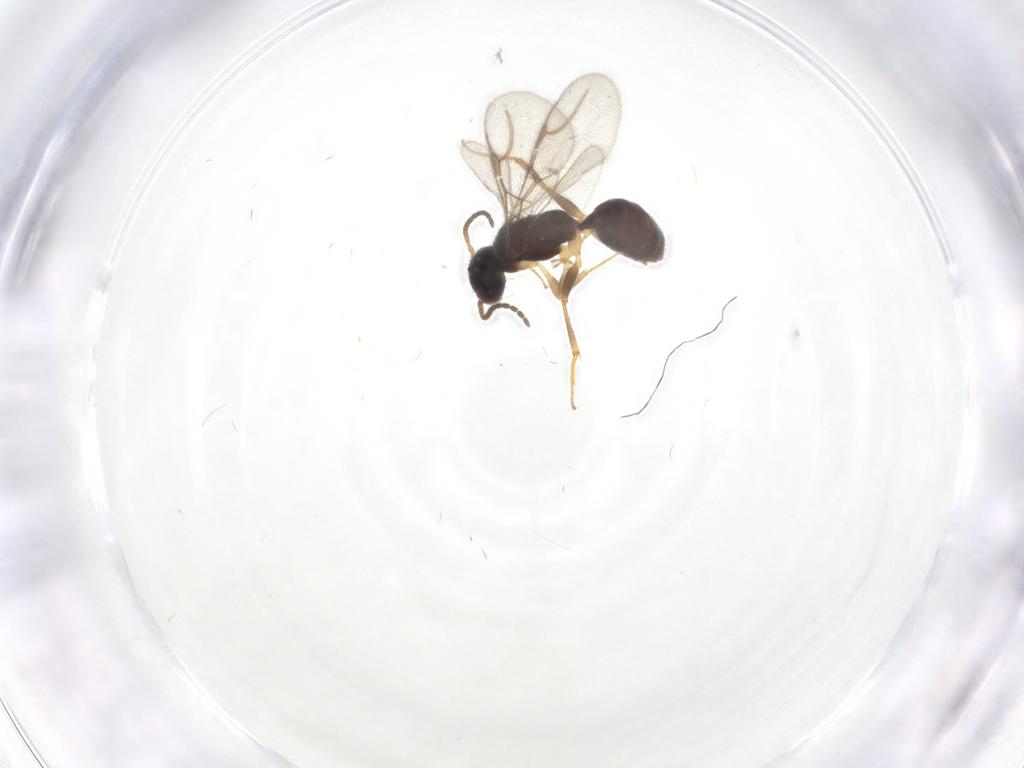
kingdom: Animalia
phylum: Arthropoda
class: Insecta
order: Hymenoptera
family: Bethylidae
